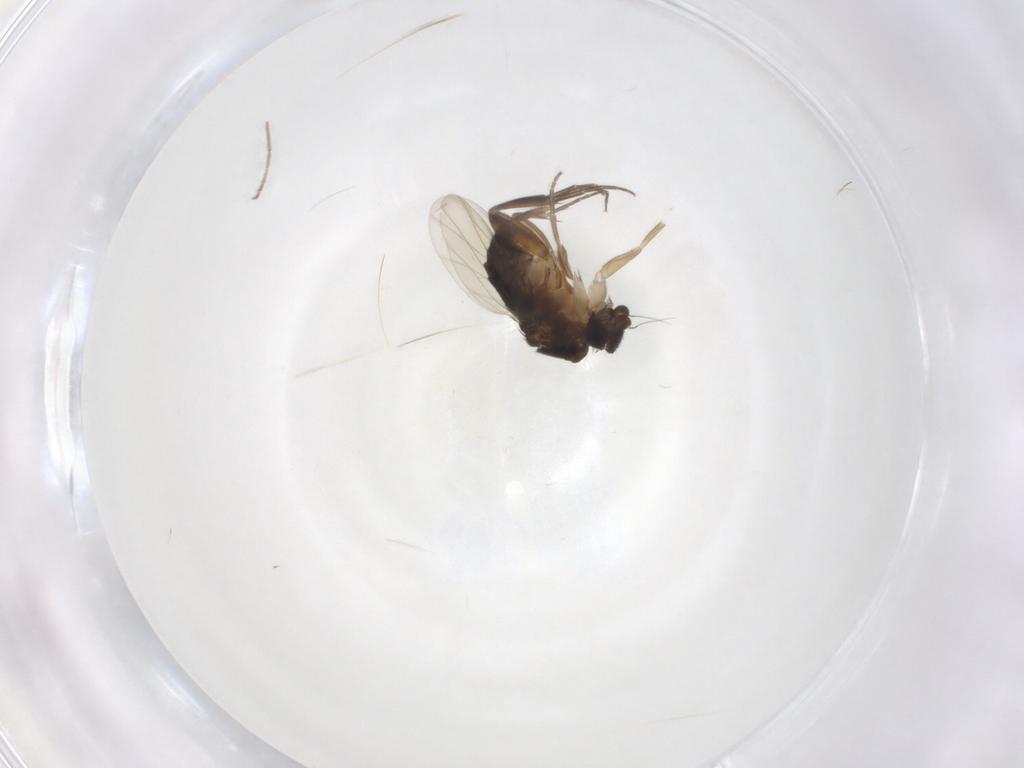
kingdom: Animalia
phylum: Arthropoda
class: Insecta
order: Diptera
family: Phoridae
